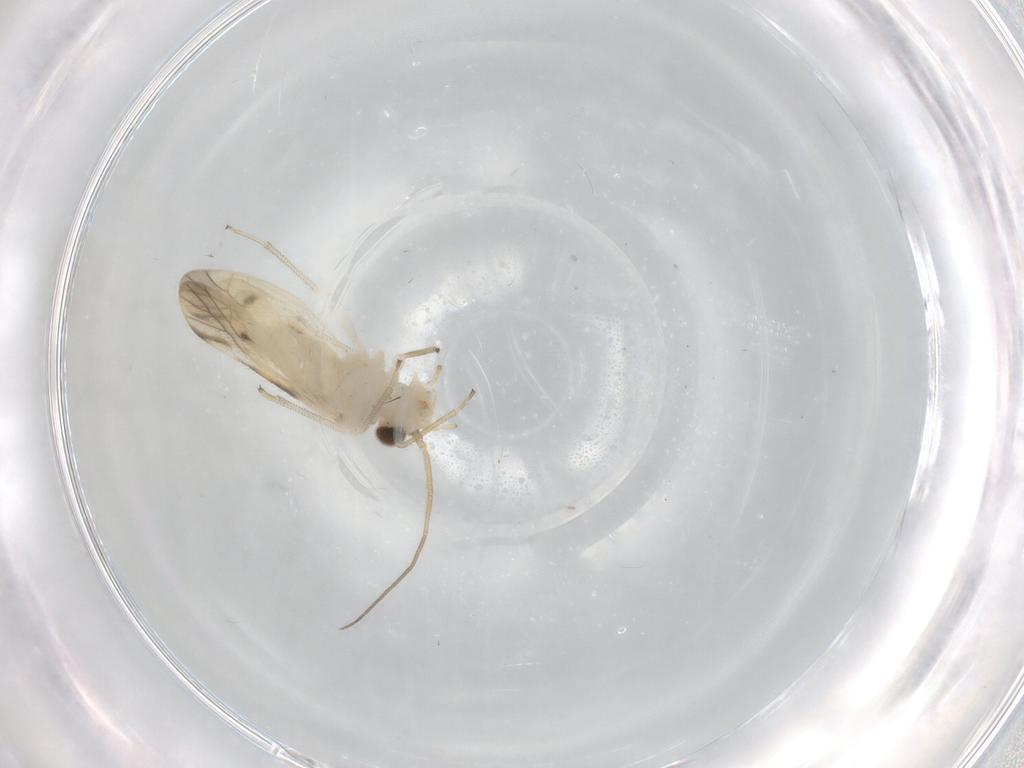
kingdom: Animalia
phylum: Arthropoda
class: Insecta
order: Psocodea
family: Caeciliusidae
